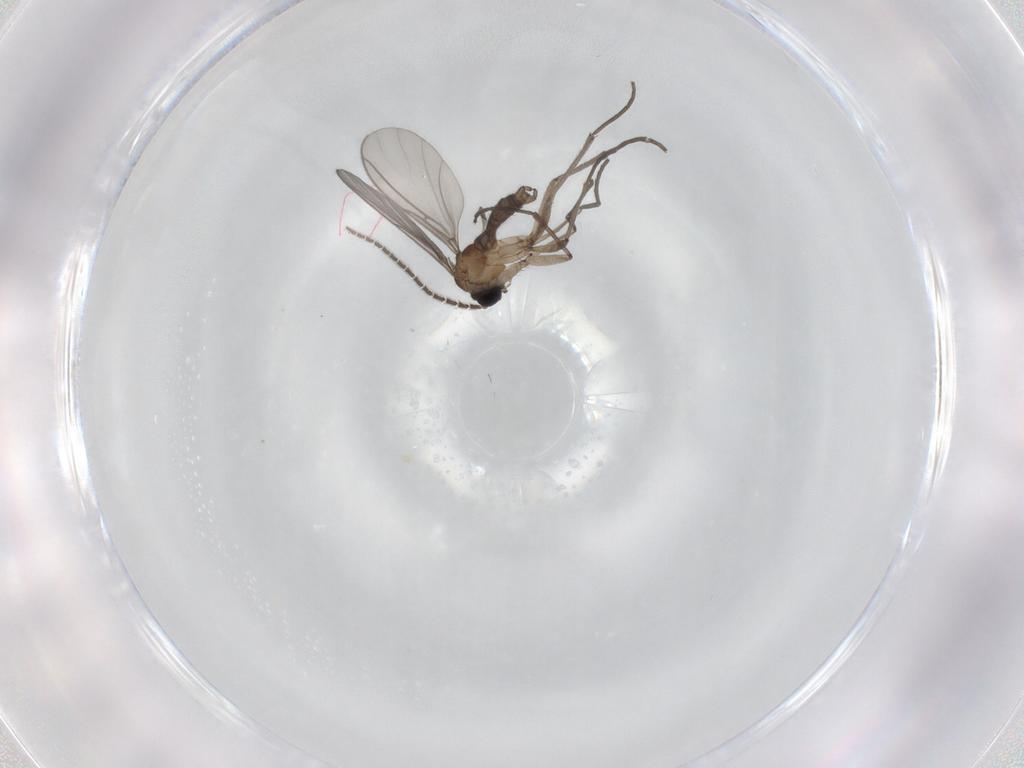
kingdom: Animalia
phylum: Arthropoda
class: Insecta
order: Diptera
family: Sciaridae
